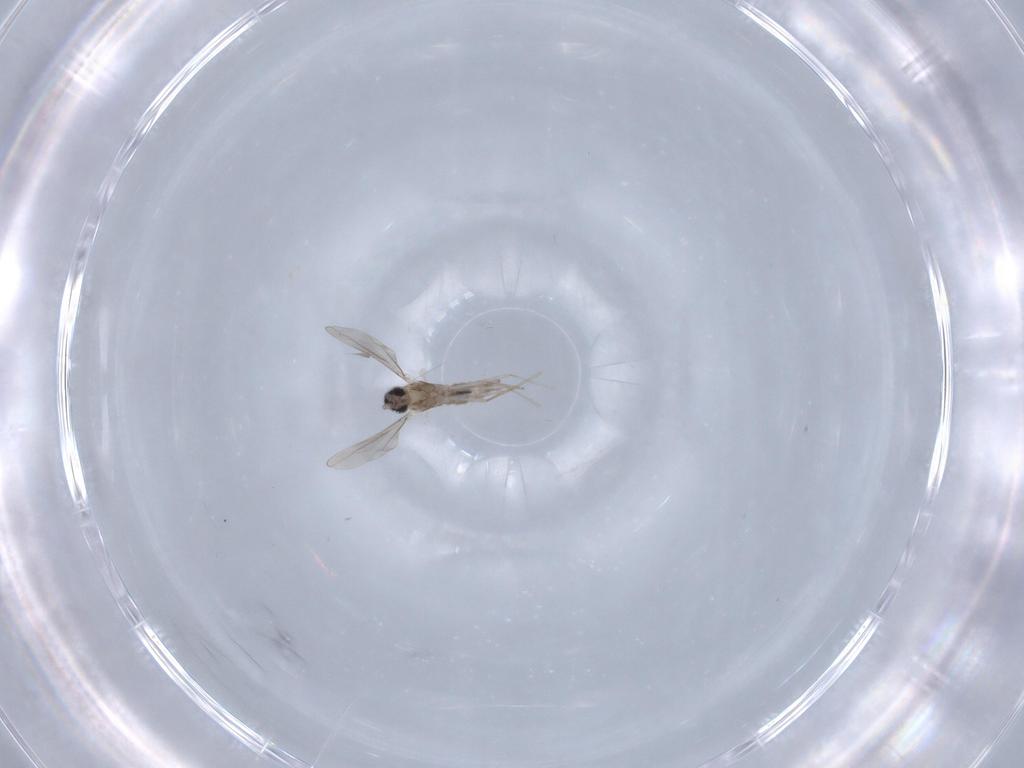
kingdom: Animalia
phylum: Arthropoda
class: Insecta
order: Diptera
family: Cecidomyiidae
